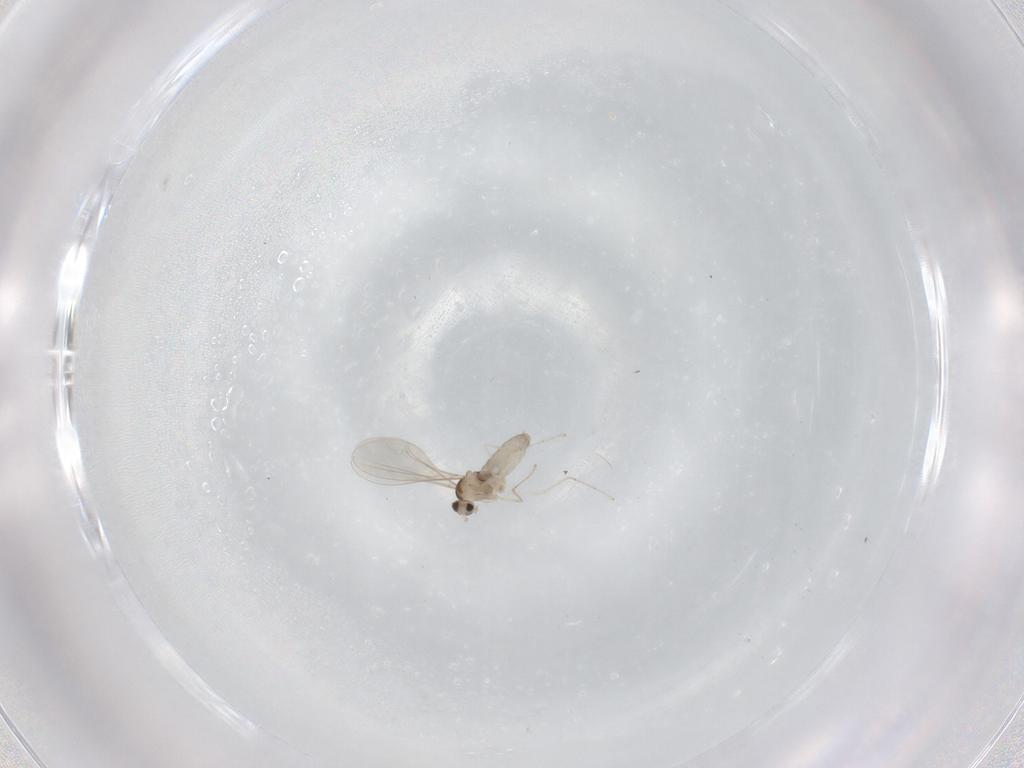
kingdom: Animalia
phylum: Arthropoda
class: Insecta
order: Diptera
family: Cecidomyiidae
